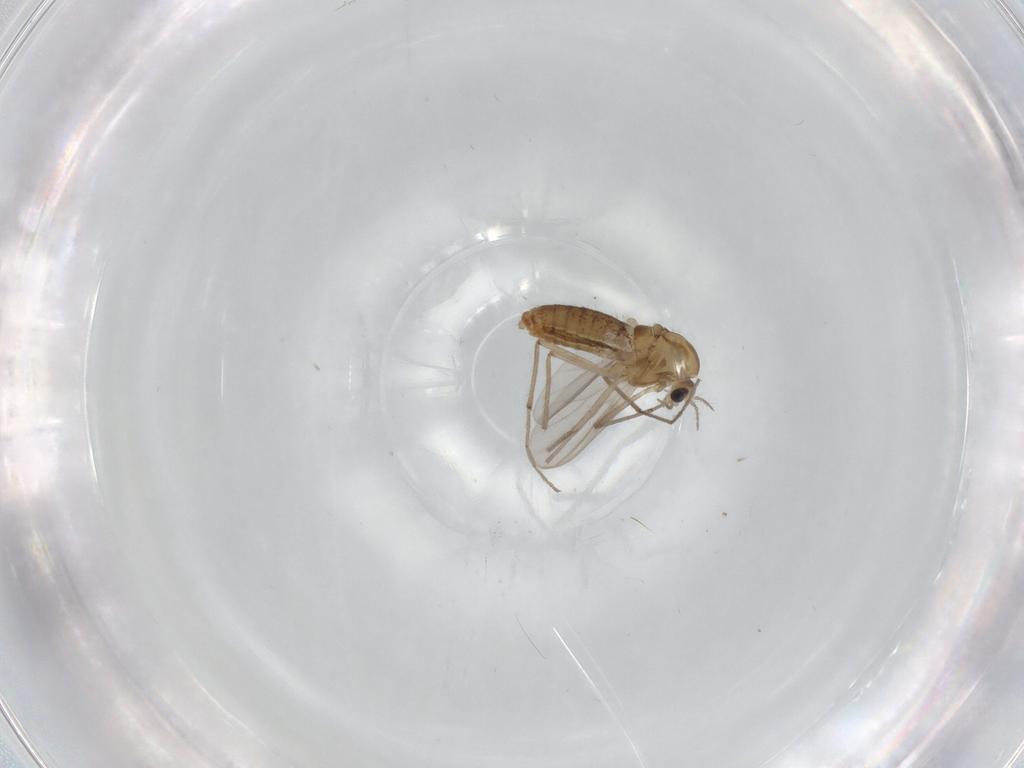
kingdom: Animalia
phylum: Arthropoda
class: Insecta
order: Diptera
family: Chironomidae
